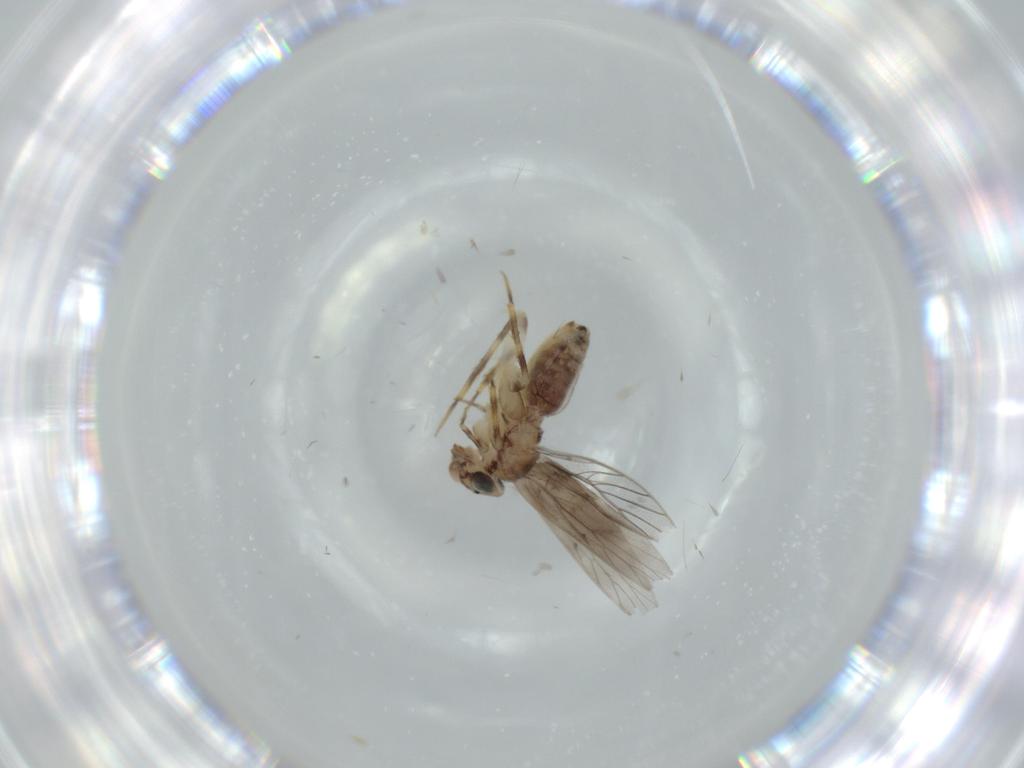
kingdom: Animalia
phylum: Arthropoda
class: Insecta
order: Psocodea
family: Ectopsocidae
